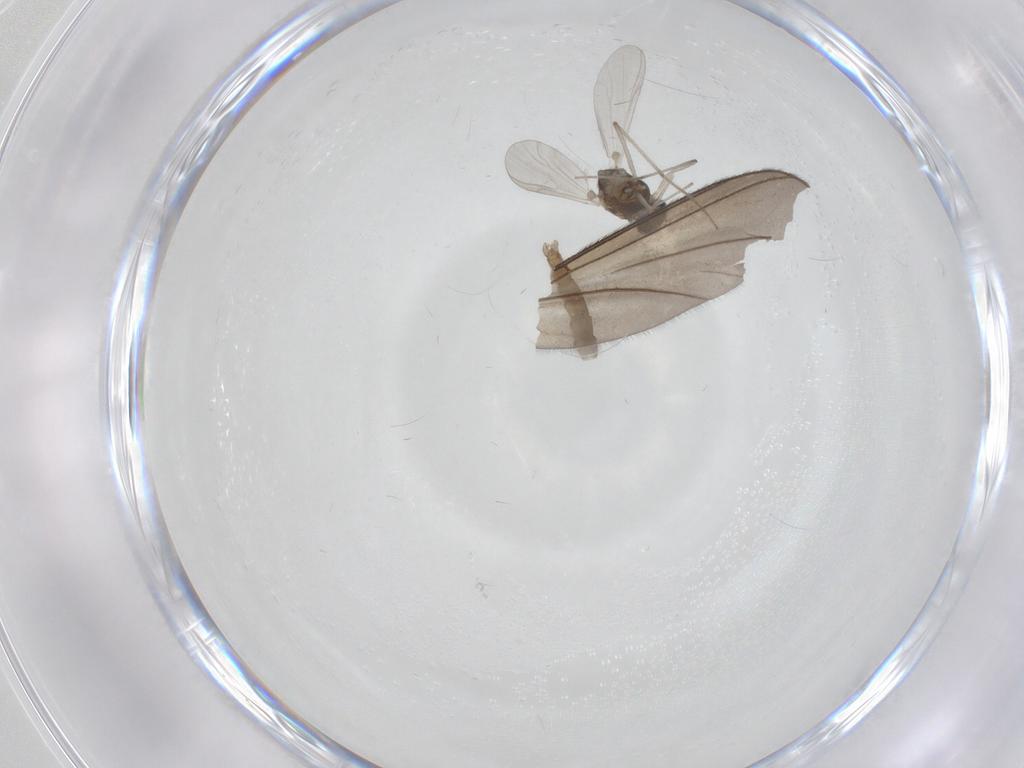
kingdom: Animalia
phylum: Arthropoda
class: Insecta
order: Diptera
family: Chironomidae
